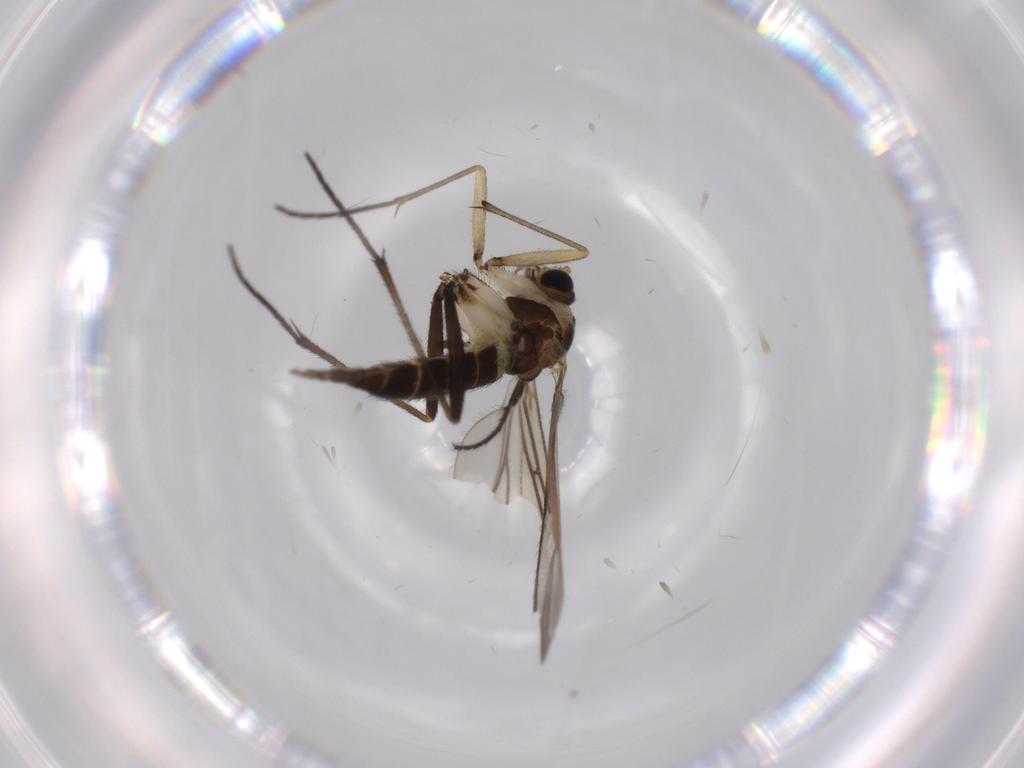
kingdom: Animalia
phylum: Arthropoda
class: Insecta
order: Diptera
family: Sciaridae
